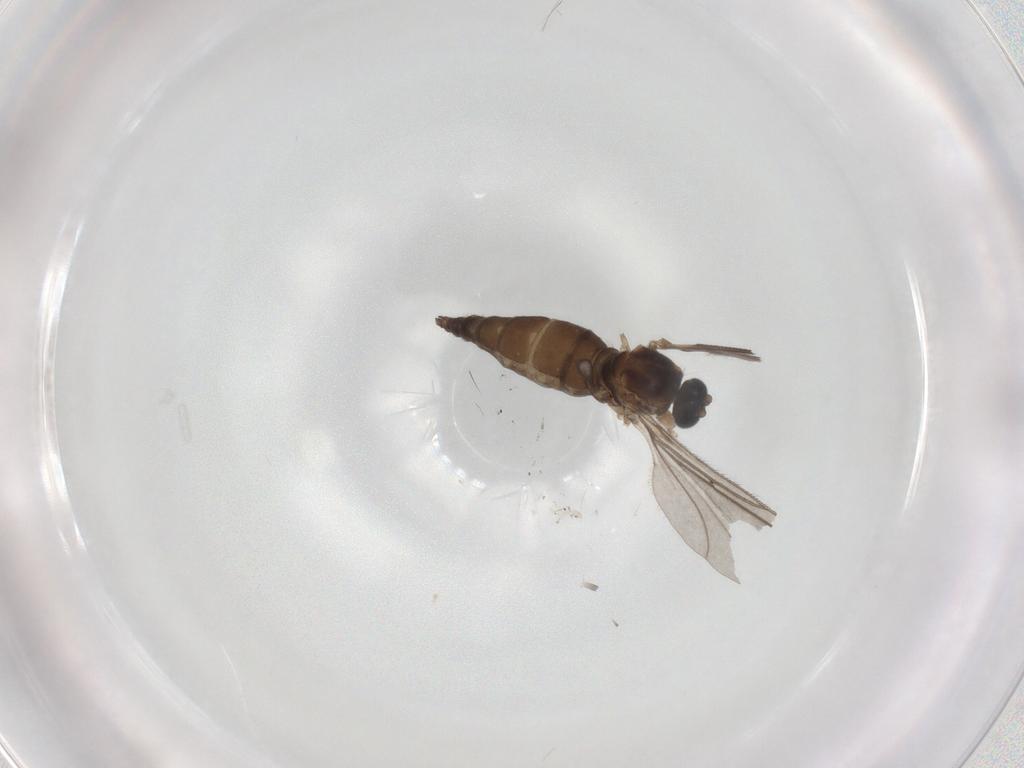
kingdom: Animalia
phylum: Arthropoda
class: Insecta
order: Diptera
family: Sciaridae
